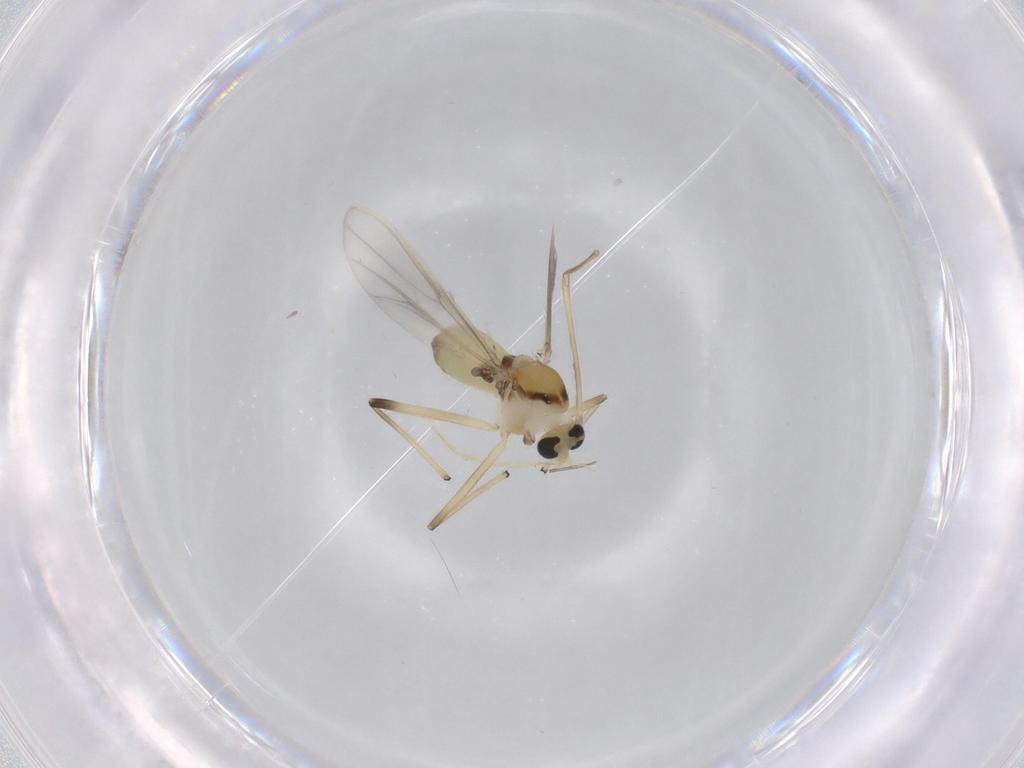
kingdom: Animalia
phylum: Arthropoda
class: Insecta
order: Diptera
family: Chironomidae
